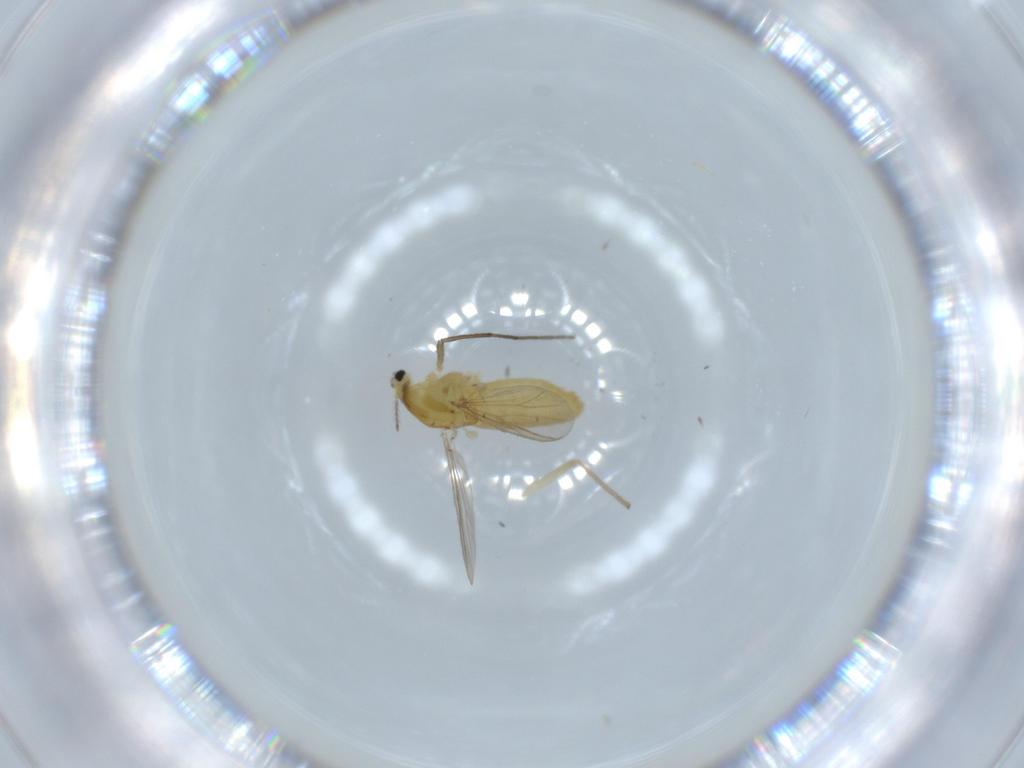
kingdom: Animalia
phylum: Arthropoda
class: Insecta
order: Diptera
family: Chironomidae
